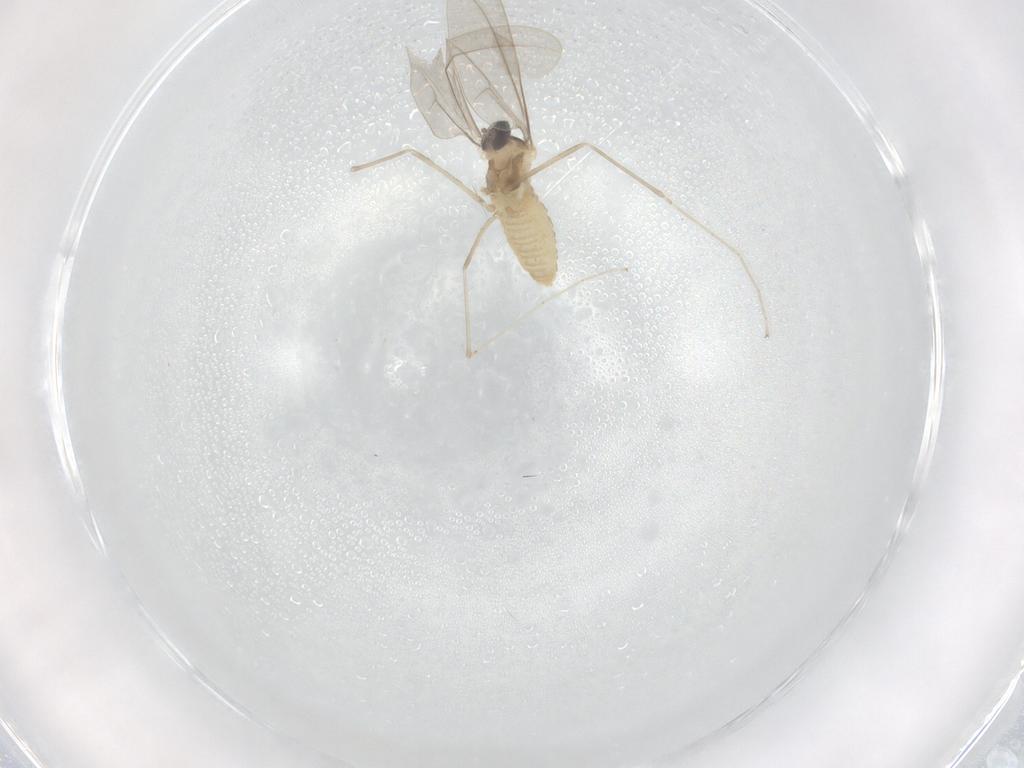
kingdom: Animalia
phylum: Arthropoda
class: Insecta
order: Diptera
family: Cecidomyiidae
